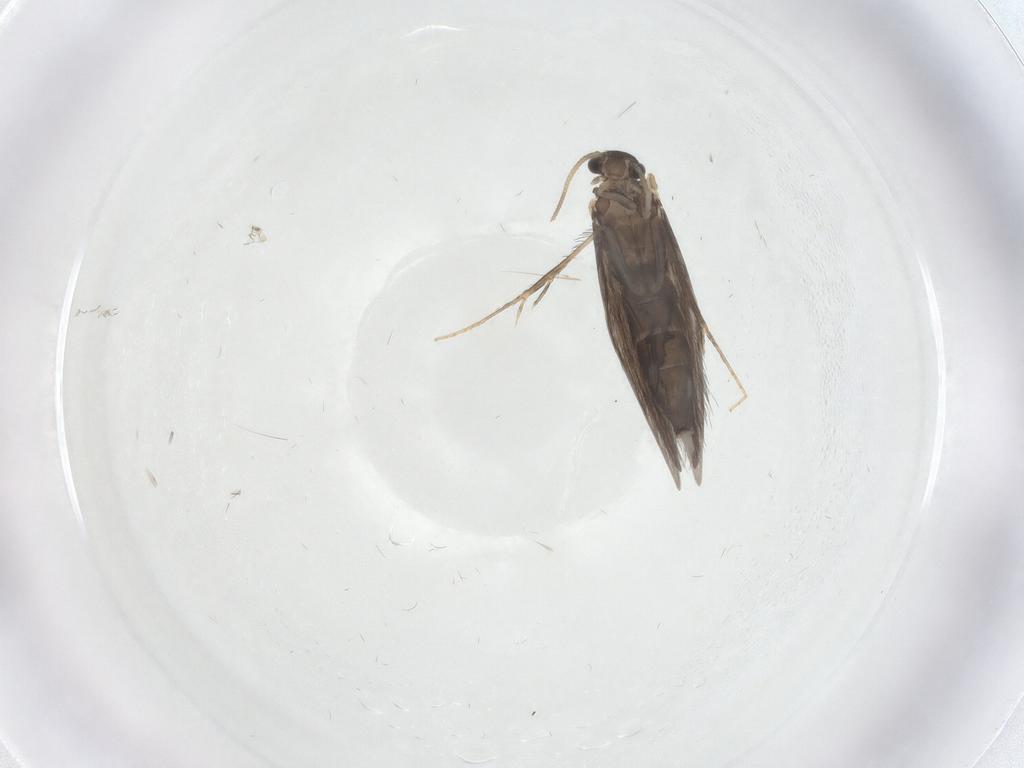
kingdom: Animalia
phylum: Arthropoda
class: Insecta
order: Trichoptera
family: Hydroptilidae
